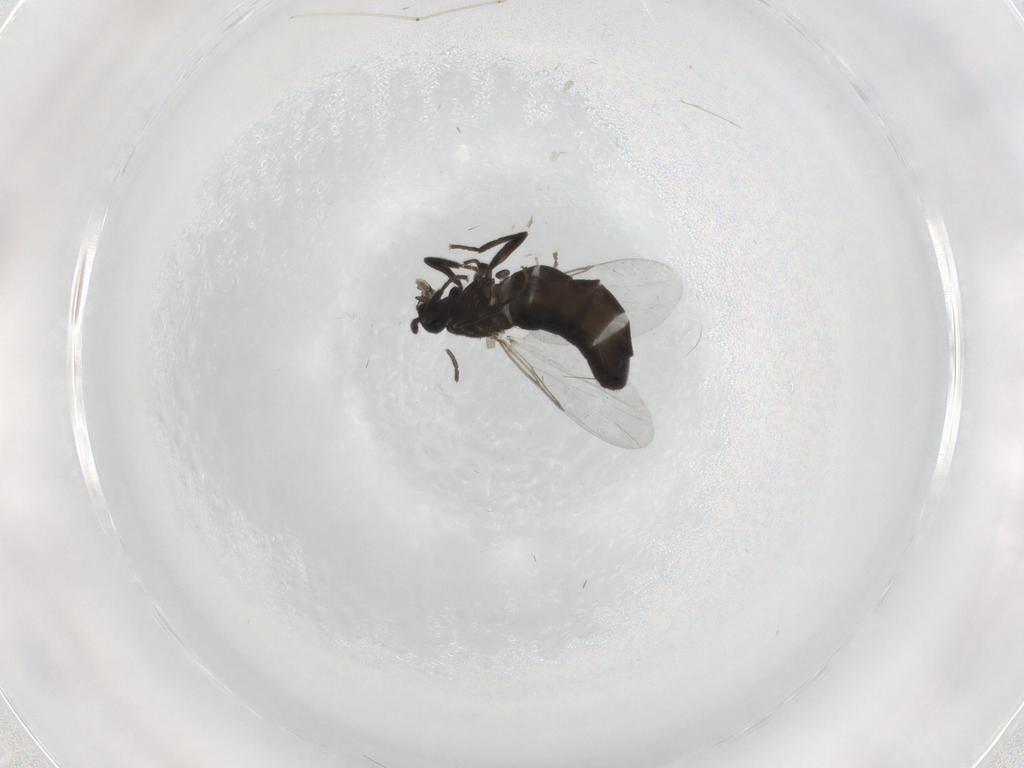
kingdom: Animalia
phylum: Arthropoda
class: Insecta
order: Diptera
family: Scatopsidae
